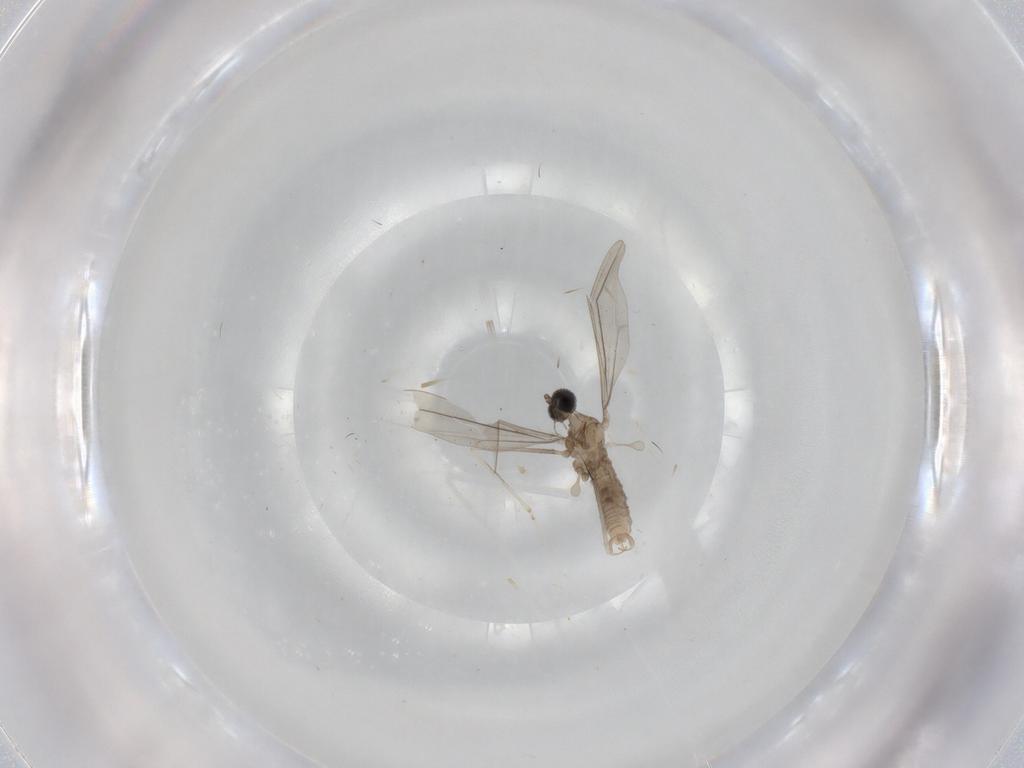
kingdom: Animalia
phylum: Arthropoda
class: Insecta
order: Diptera
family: Cecidomyiidae
